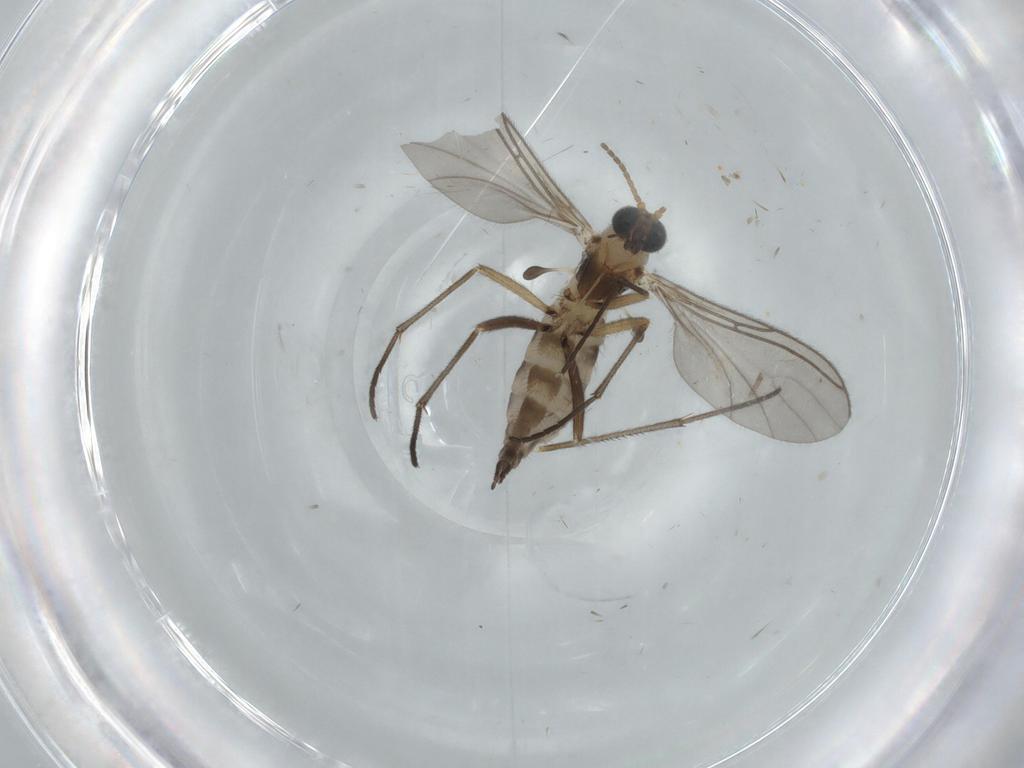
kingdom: Animalia
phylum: Arthropoda
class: Insecta
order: Diptera
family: Sciaridae
